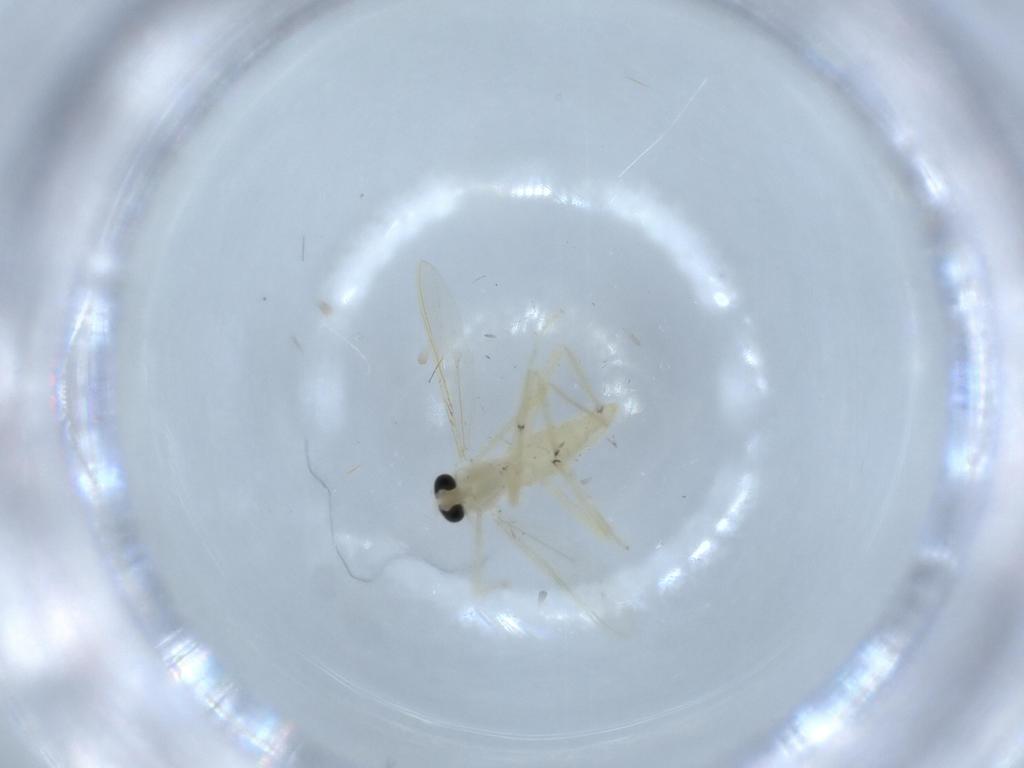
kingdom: Animalia
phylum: Arthropoda
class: Insecta
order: Diptera
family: Chironomidae
